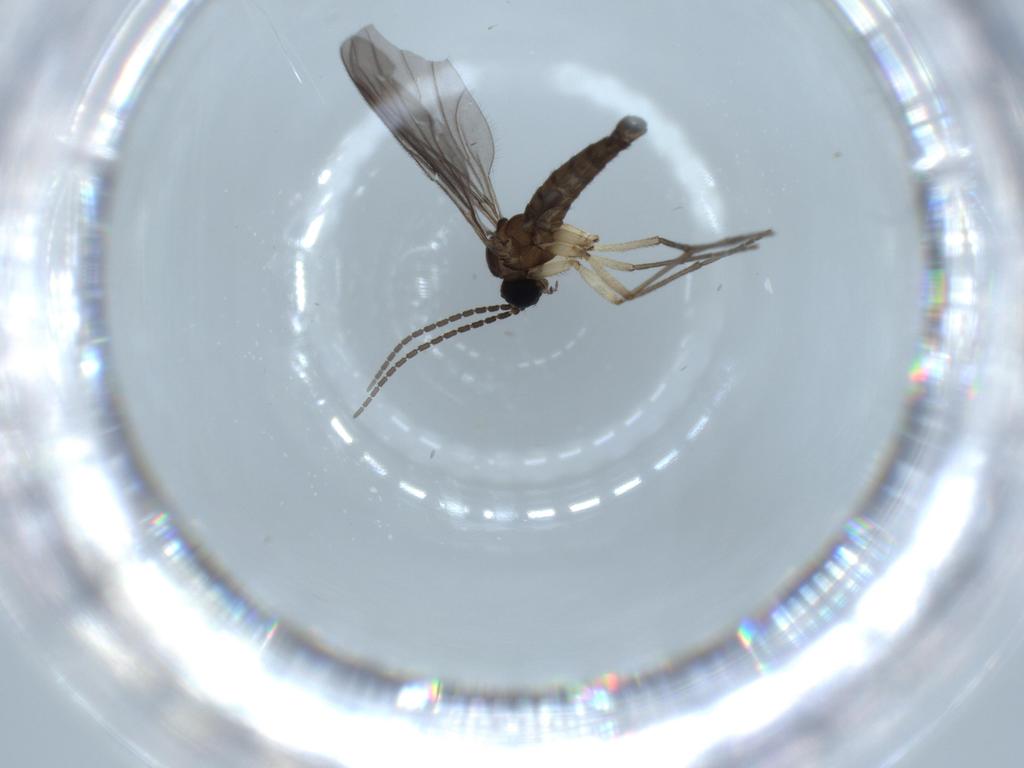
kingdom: Animalia
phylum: Arthropoda
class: Insecta
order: Diptera
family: Sciaridae
